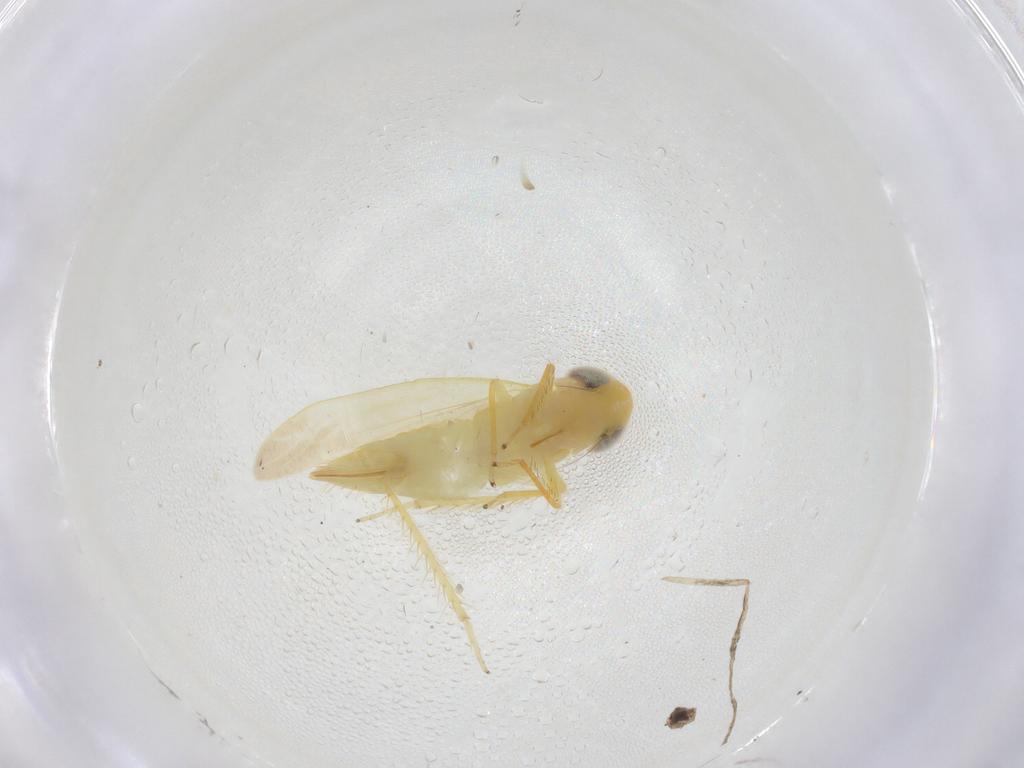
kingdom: Animalia
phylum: Arthropoda
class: Insecta
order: Hemiptera
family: Cicadellidae
